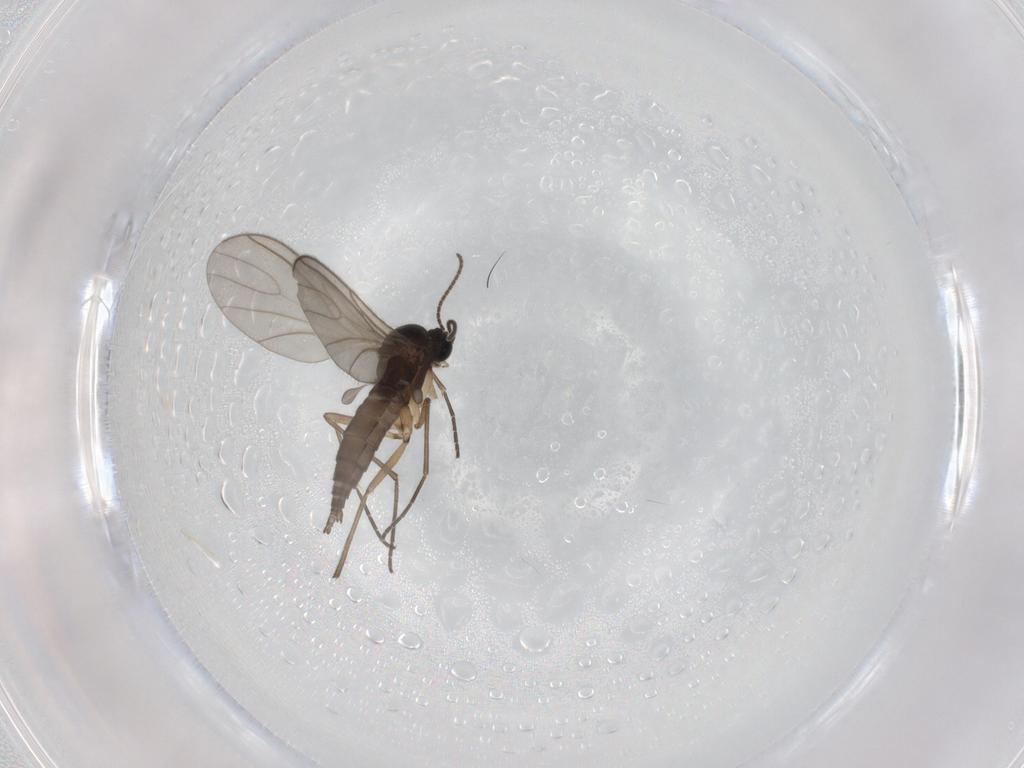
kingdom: Animalia
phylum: Arthropoda
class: Insecta
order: Diptera
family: Sciaridae
